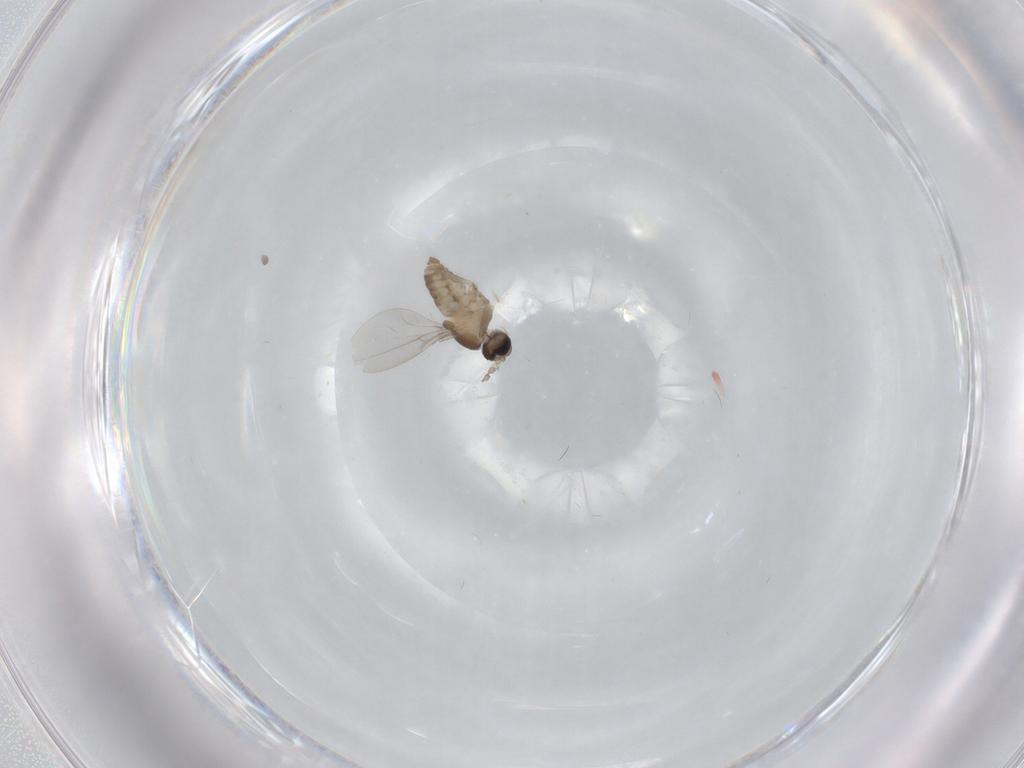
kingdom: Animalia
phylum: Arthropoda
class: Insecta
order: Diptera
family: Cecidomyiidae
